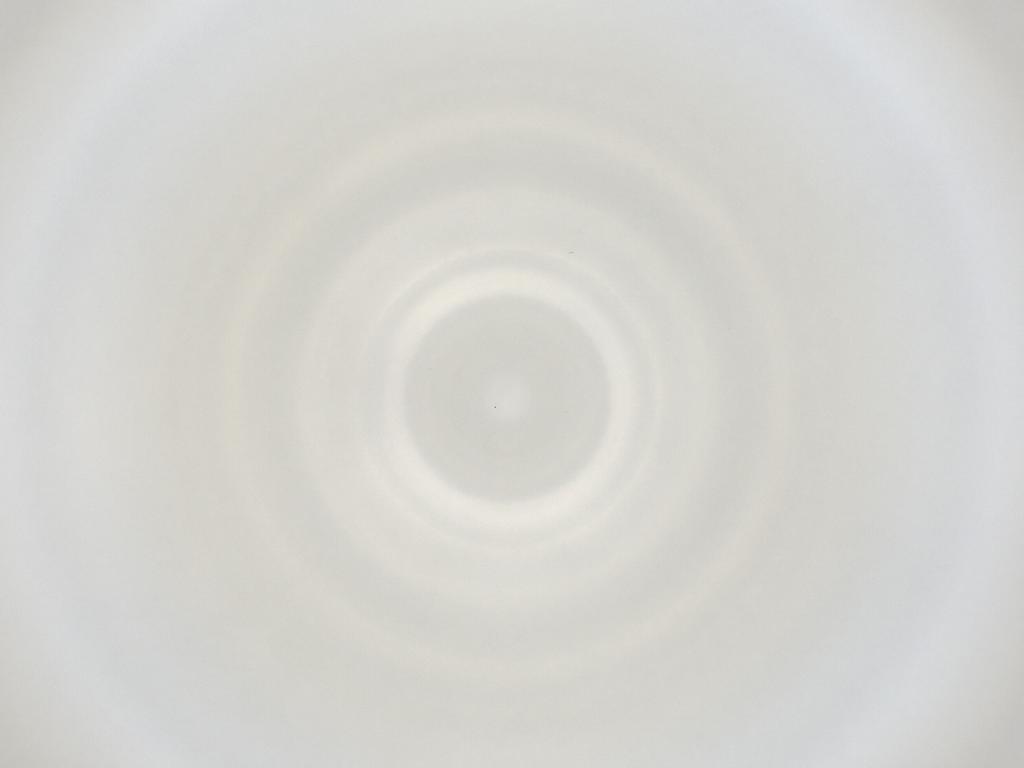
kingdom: Animalia
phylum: Arthropoda
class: Insecta
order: Diptera
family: Cecidomyiidae
